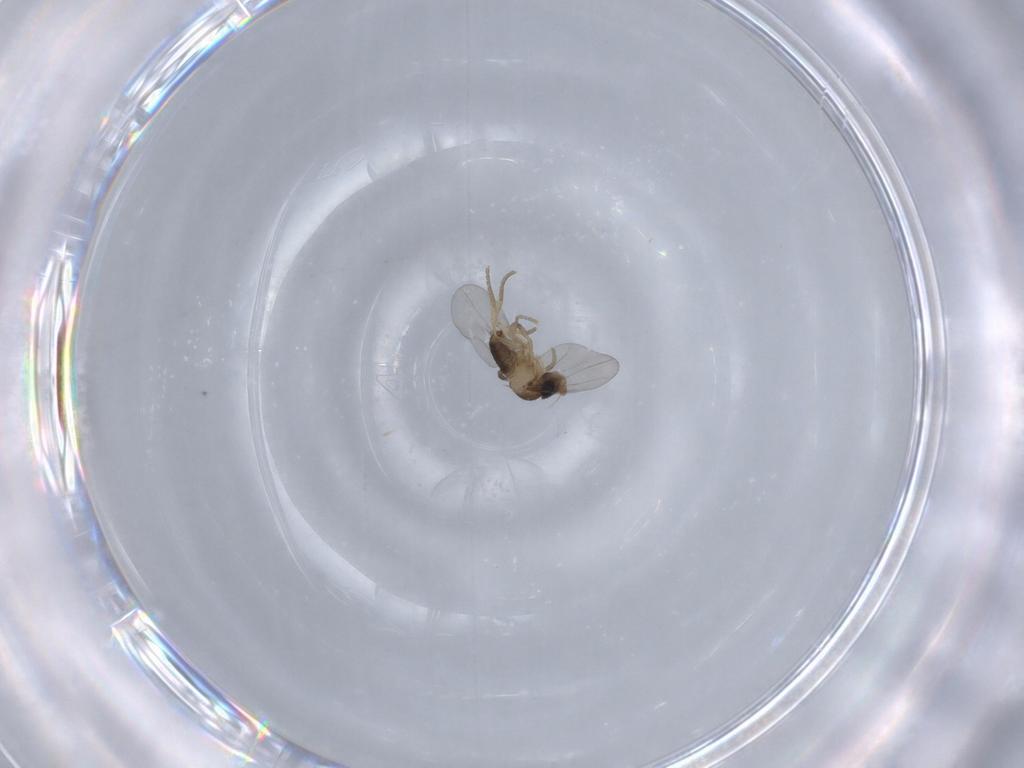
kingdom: Animalia
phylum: Arthropoda
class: Insecta
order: Diptera
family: Phoridae
